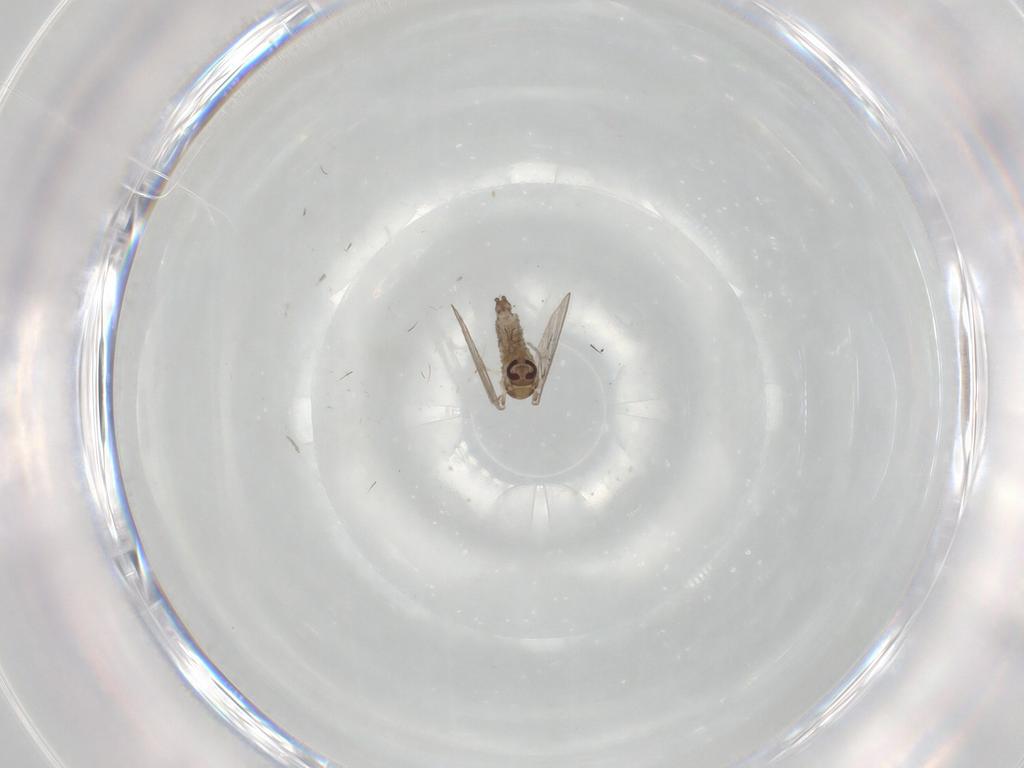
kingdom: Animalia
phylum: Arthropoda
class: Insecta
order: Diptera
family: Psychodidae
